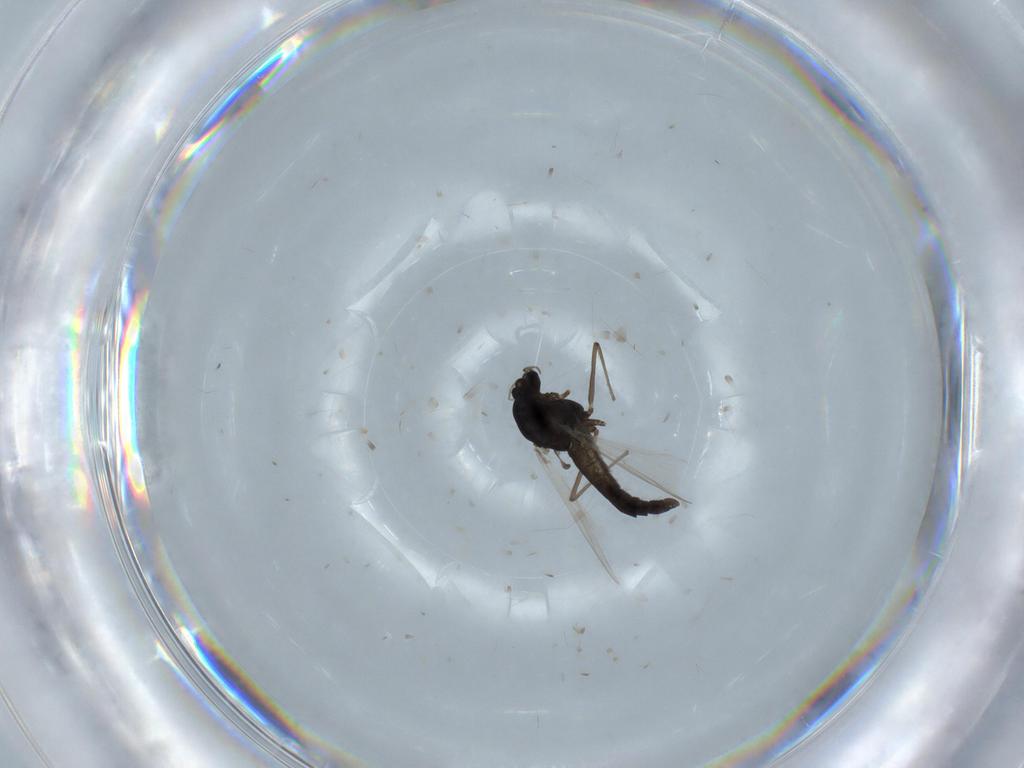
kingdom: Animalia
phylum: Arthropoda
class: Insecta
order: Diptera
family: Chironomidae
